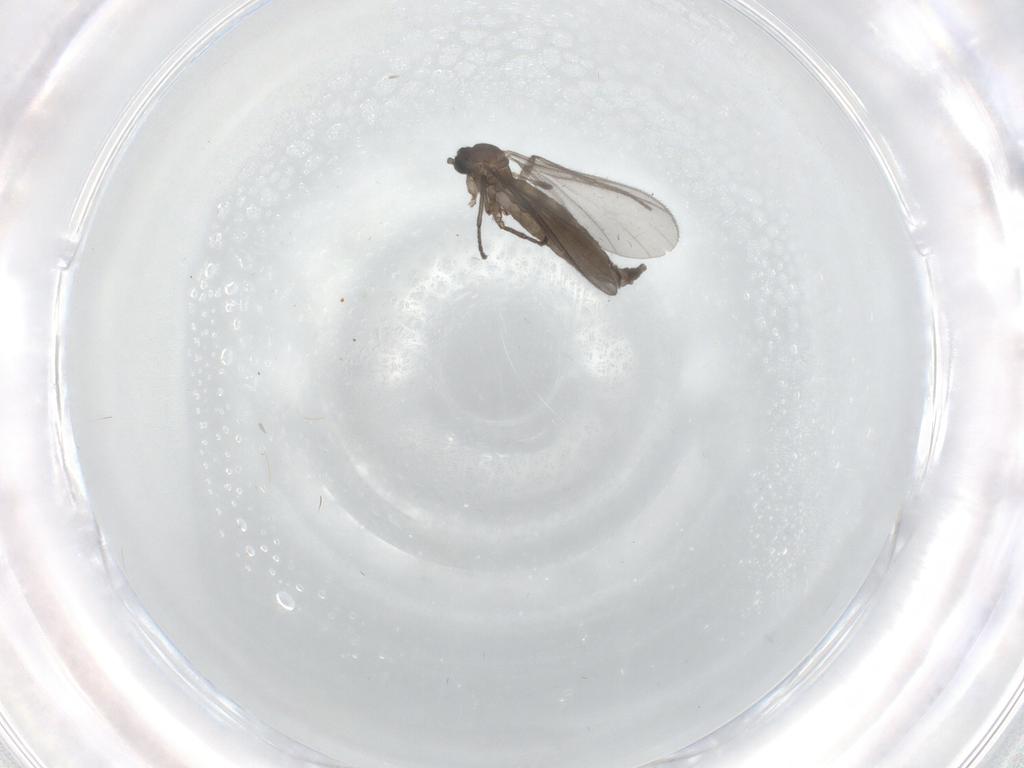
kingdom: Animalia
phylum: Arthropoda
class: Insecta
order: Diptera
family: Sciaridae
